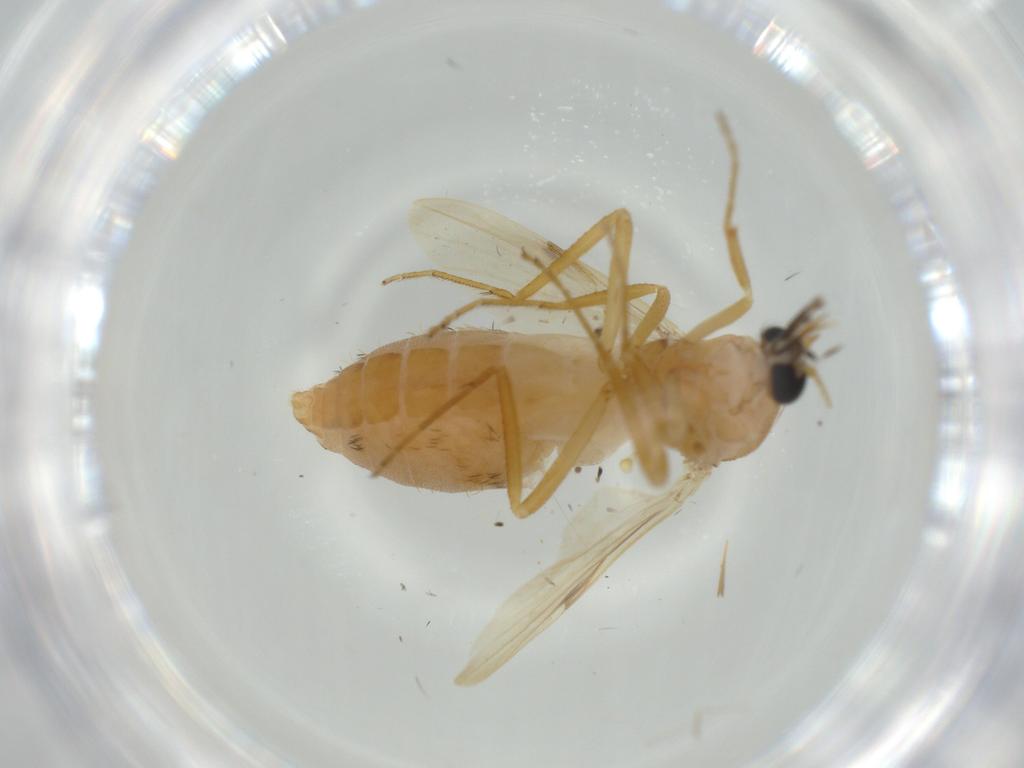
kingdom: Animalia
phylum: Arthropoda
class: Insecta
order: Diptera
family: Ceratopogonidae
